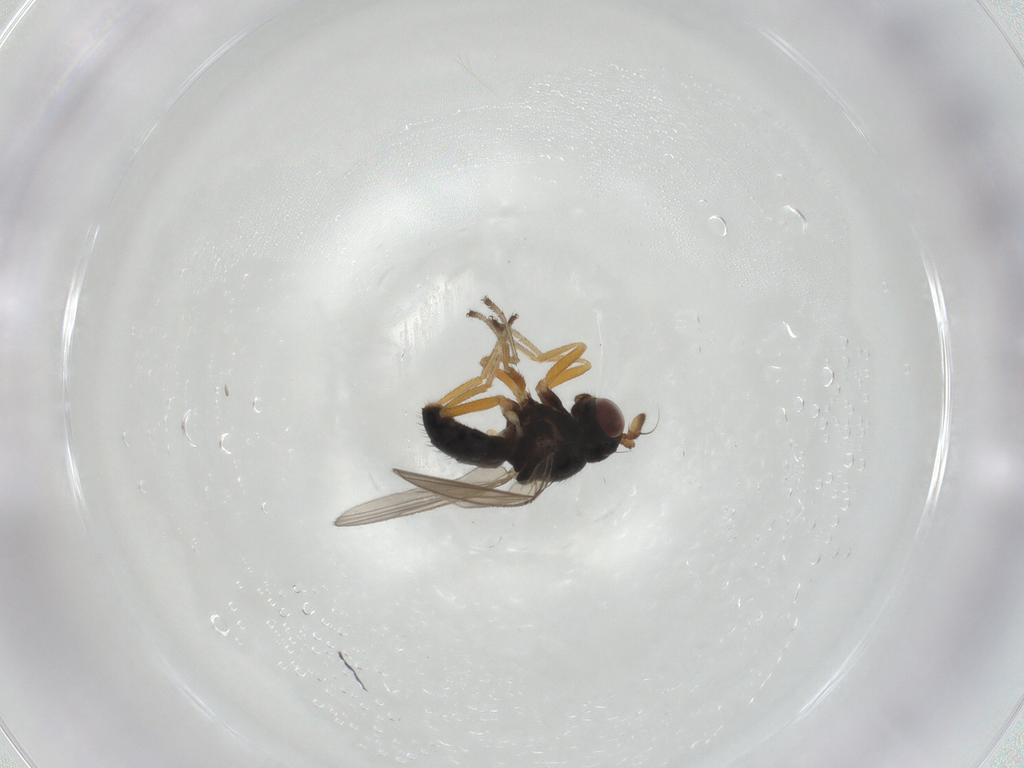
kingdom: Animalia
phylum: Arthropoda
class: Insecta
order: Diptera
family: Ephydridae
